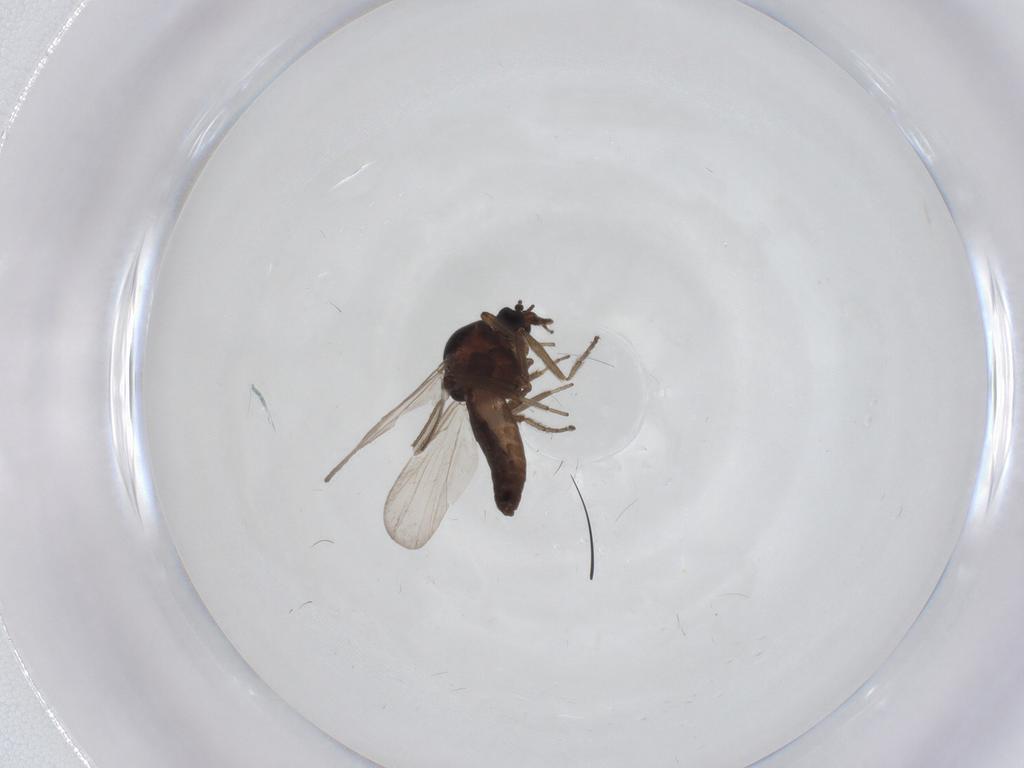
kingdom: Animalia
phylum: Arthropoda
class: Insecta
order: Diptera
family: Ceratopogonidae
